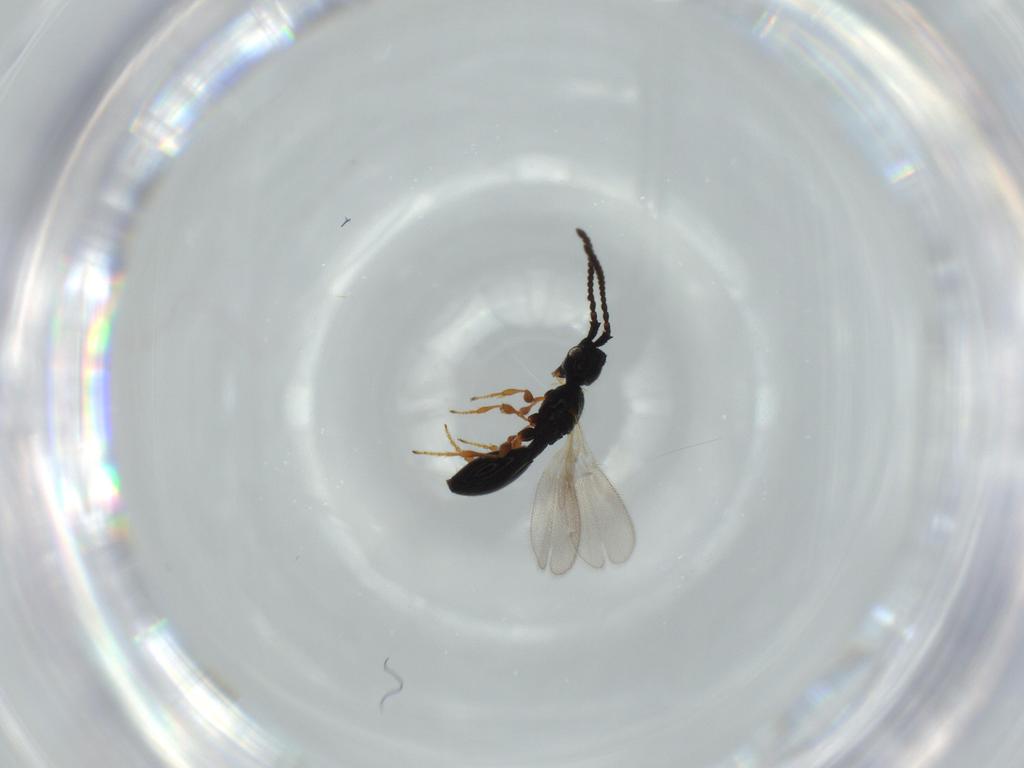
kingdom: Animalia
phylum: Arthropoda
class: Insecta
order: Hymenoptera
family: Diapriidae
